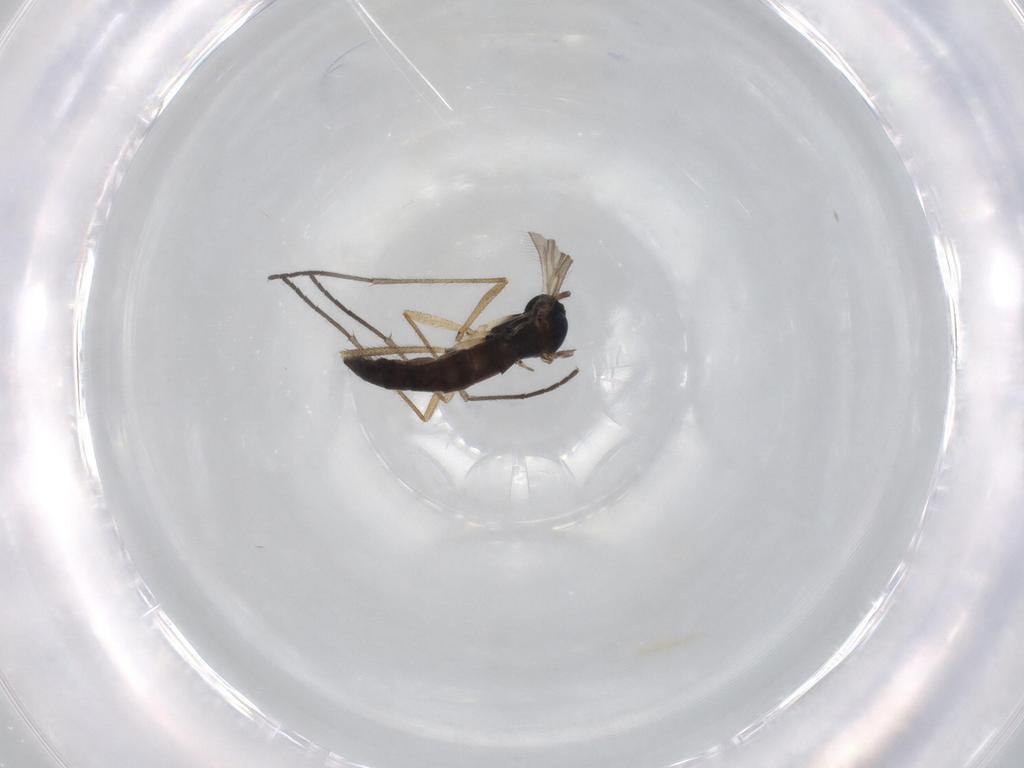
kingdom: Animalia
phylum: Arthropoda
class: Insecta
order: Diptera
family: Sciaridae
